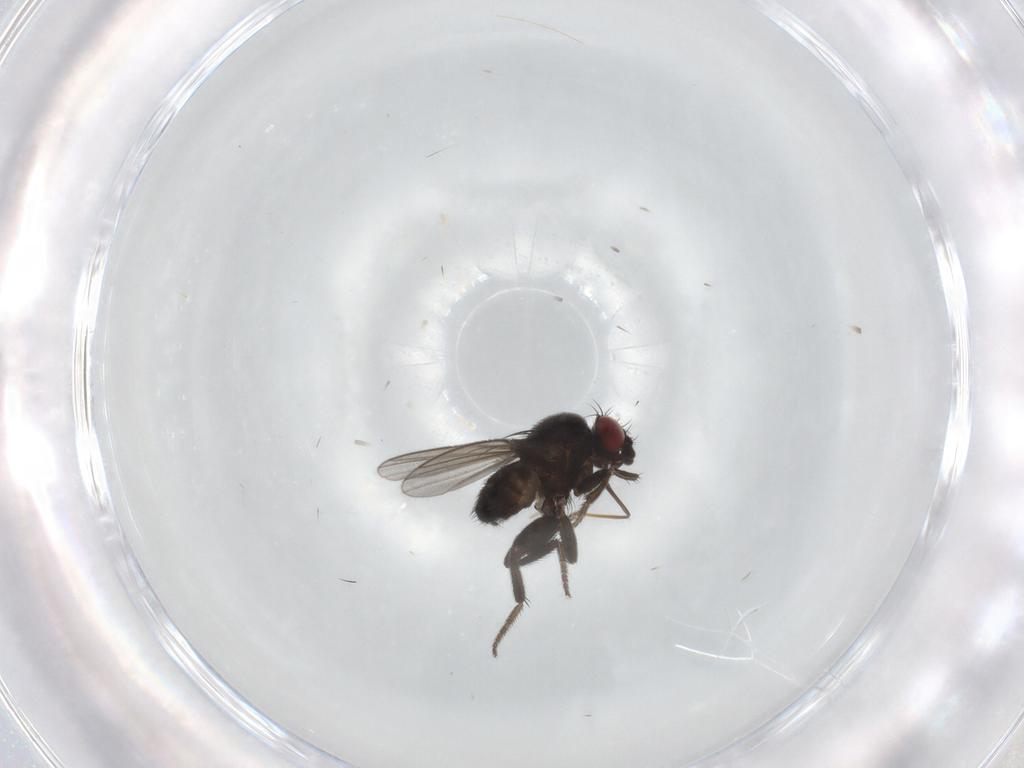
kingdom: Animalia
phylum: Arthropoda
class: Insecta
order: Diptera
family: Milichiidae
